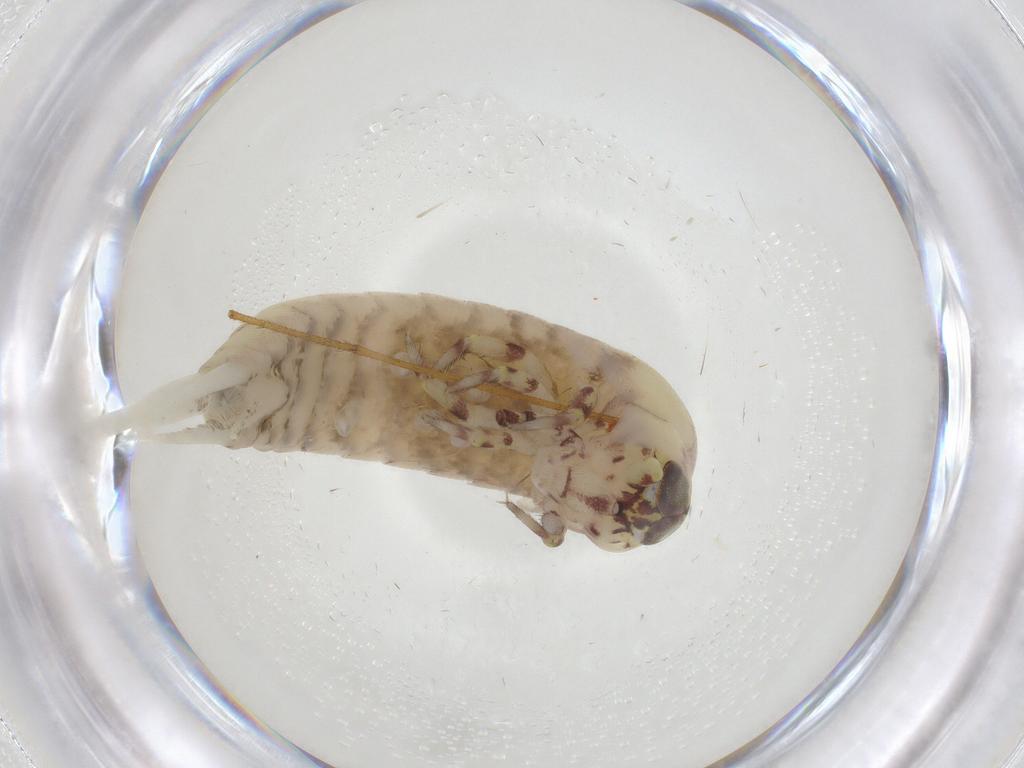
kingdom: Animalia
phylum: Arthropoda
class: Insecta
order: Archaeognatha
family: Meinertellidae
